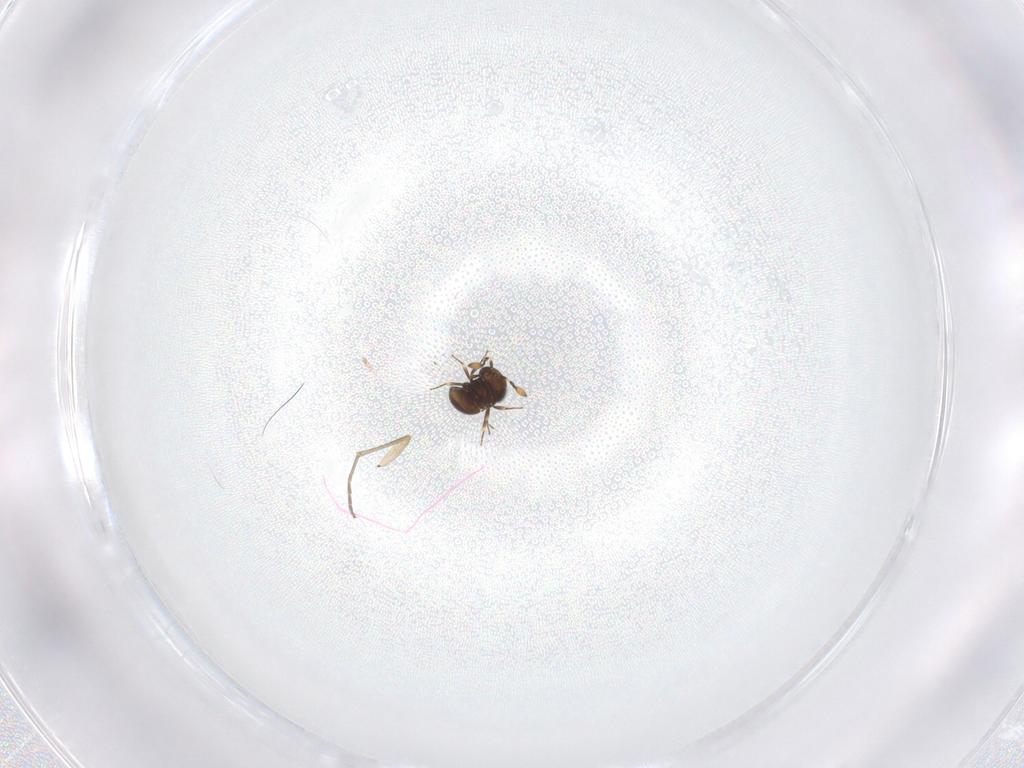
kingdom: Animalia
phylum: Arthropoda
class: Insecta
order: Hymenoptera
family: Scelionidae
